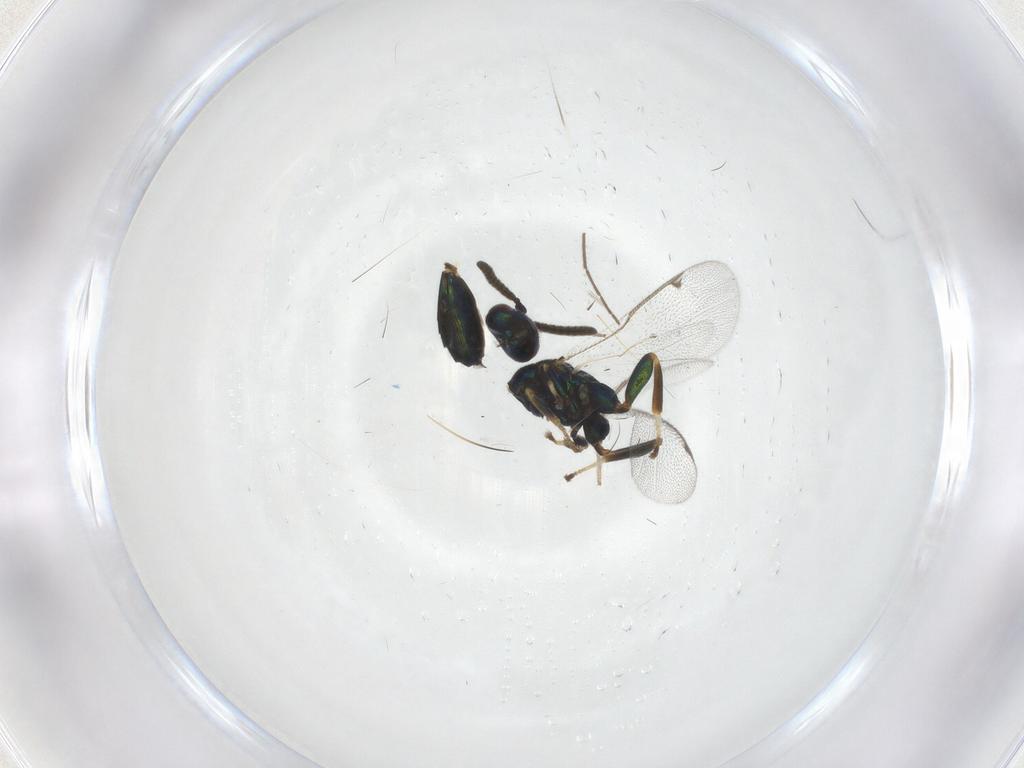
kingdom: Animalia
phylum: Arthropoda
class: Insecta
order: Hymenoptera
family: Torymidae
